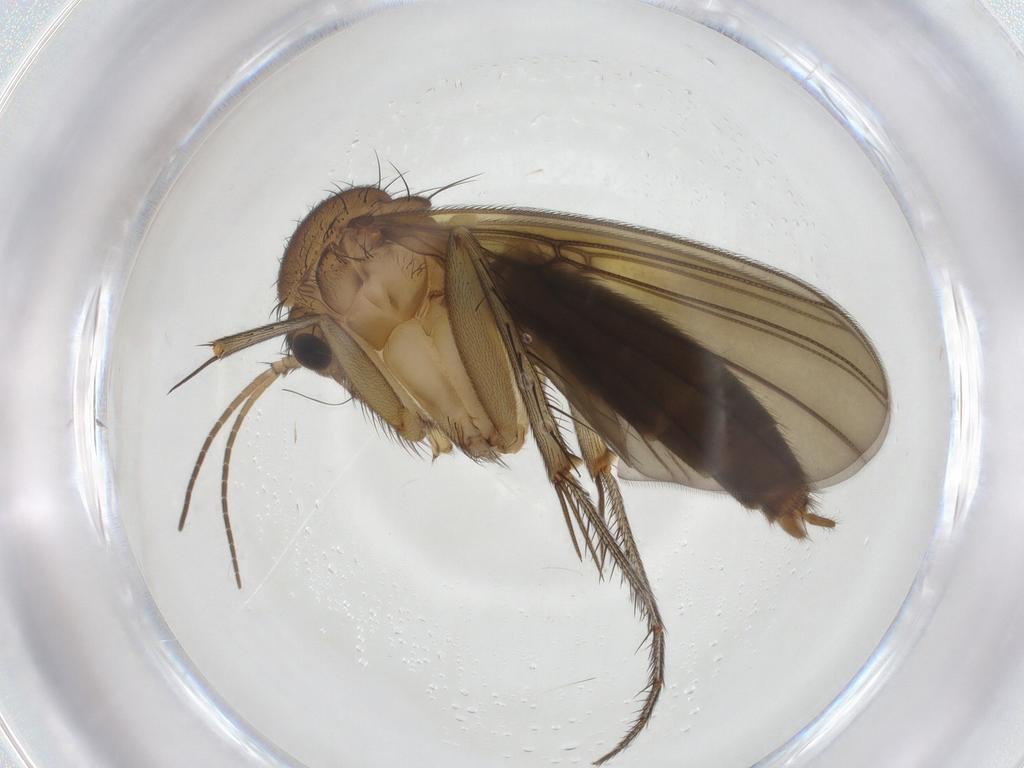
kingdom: Animalia
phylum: Arthropoda
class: Insecta
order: Diptera
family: Mycetophilidae
